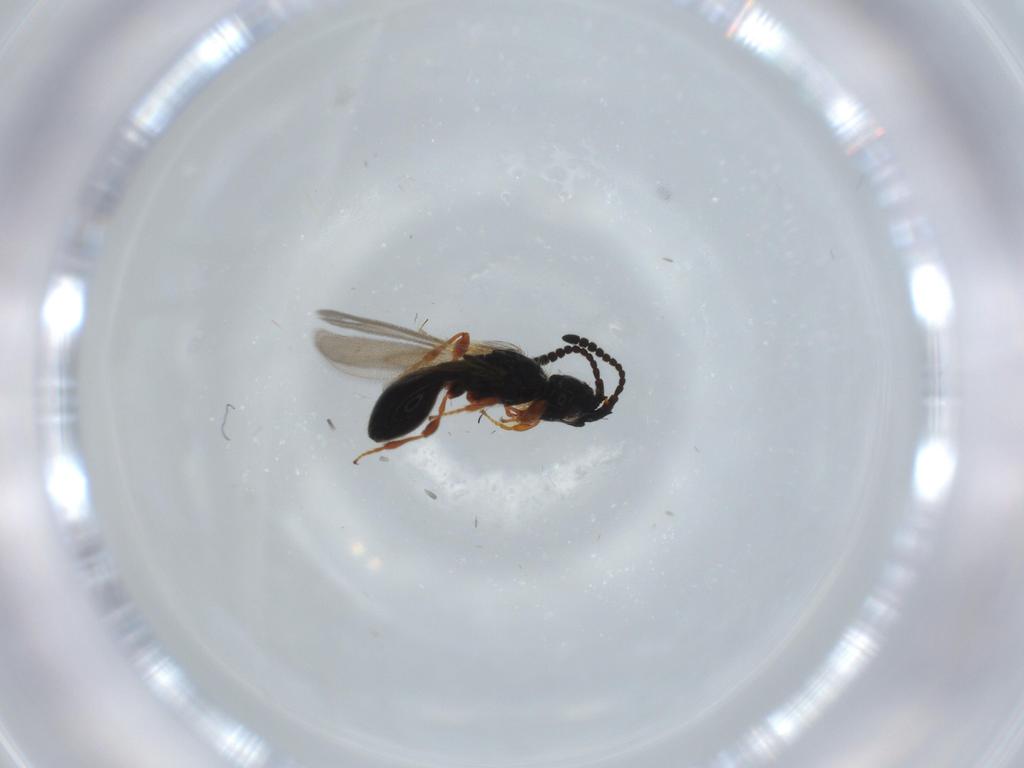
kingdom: Animalia
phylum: Arthropoda
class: Insecta
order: Hymenoptera
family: Diapriidae
